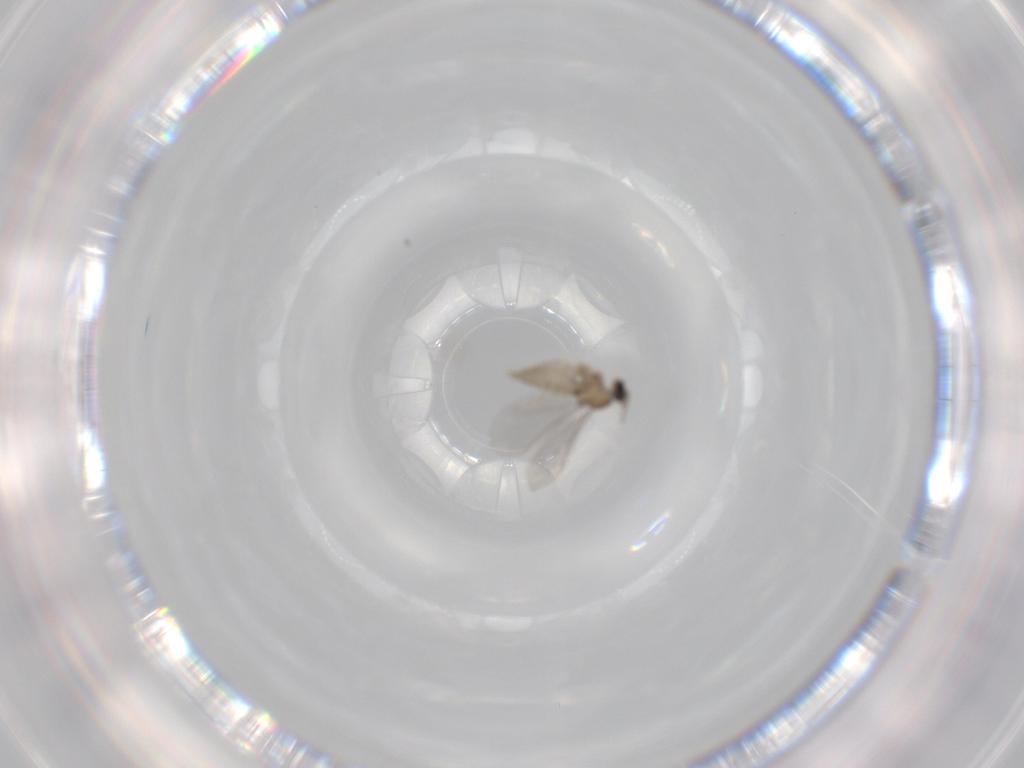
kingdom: Animalia
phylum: Arthropoda
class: Insecta
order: Diptera
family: Cecidomyiidae
